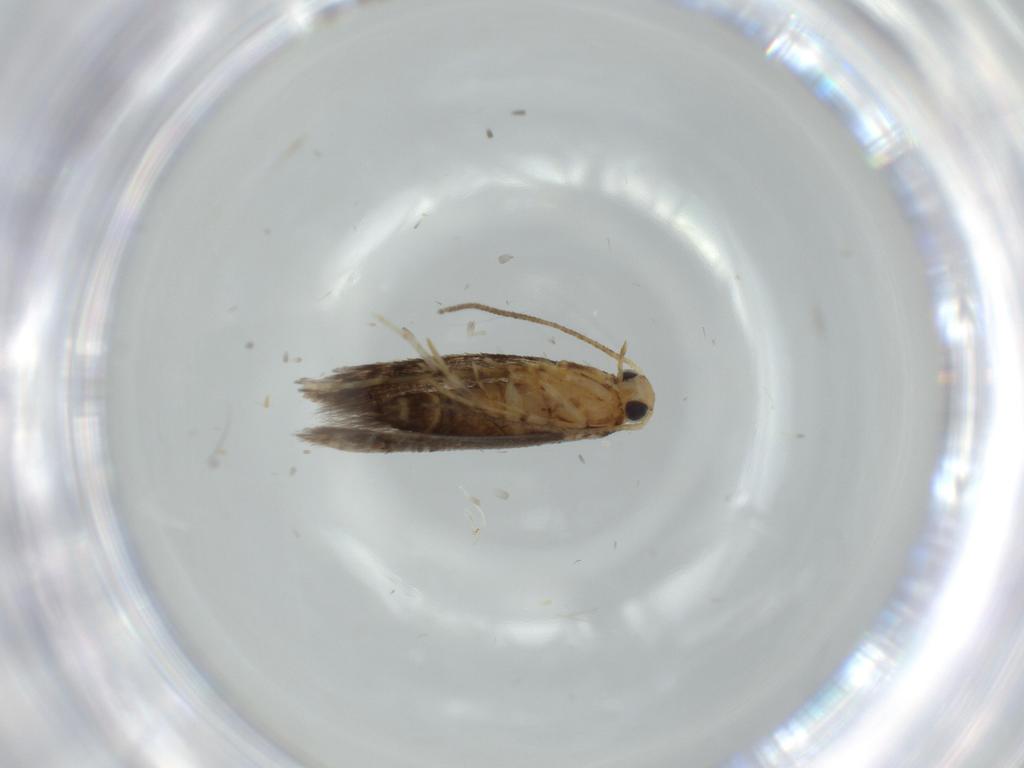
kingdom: Animalia
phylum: Arthropoda
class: Insecta
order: Lepidoptera
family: Argyresthiidae
